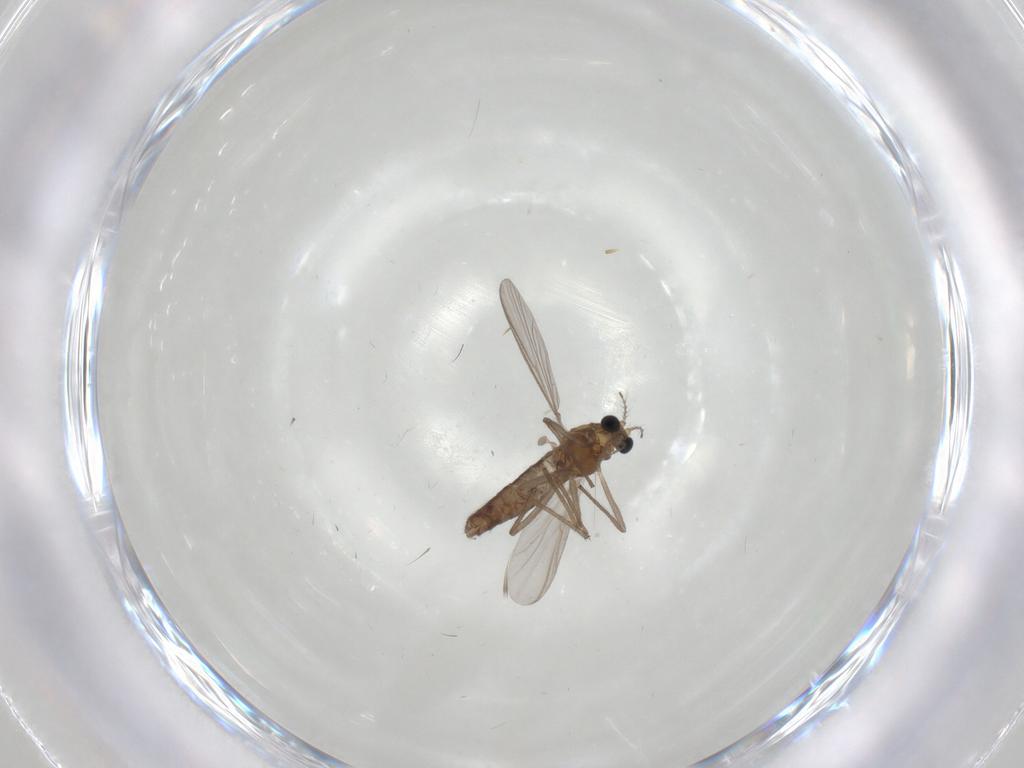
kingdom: Animalia
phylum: Arthropoda
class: Insecta
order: Diptera
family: Chironomidae
